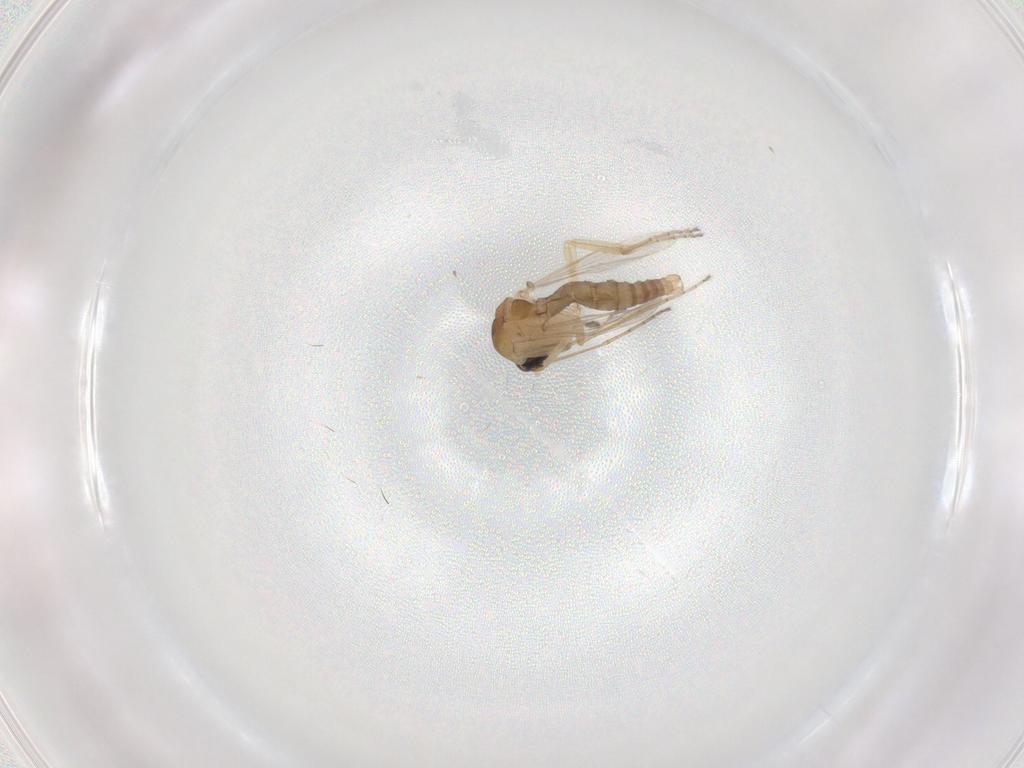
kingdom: Animalia
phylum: Arthropoda
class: Insecta
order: Diptera
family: Ceratopogonidae
